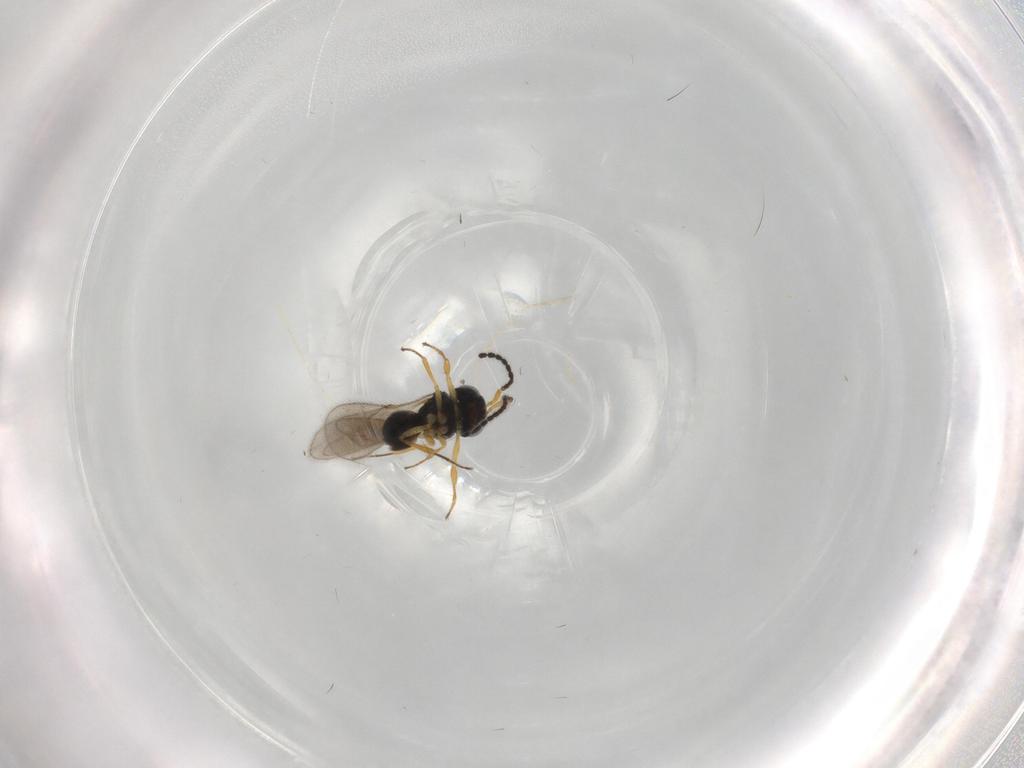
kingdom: Animalia
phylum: Arthropoda
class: Insecta
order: Hymenoptera
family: Scelionidae
